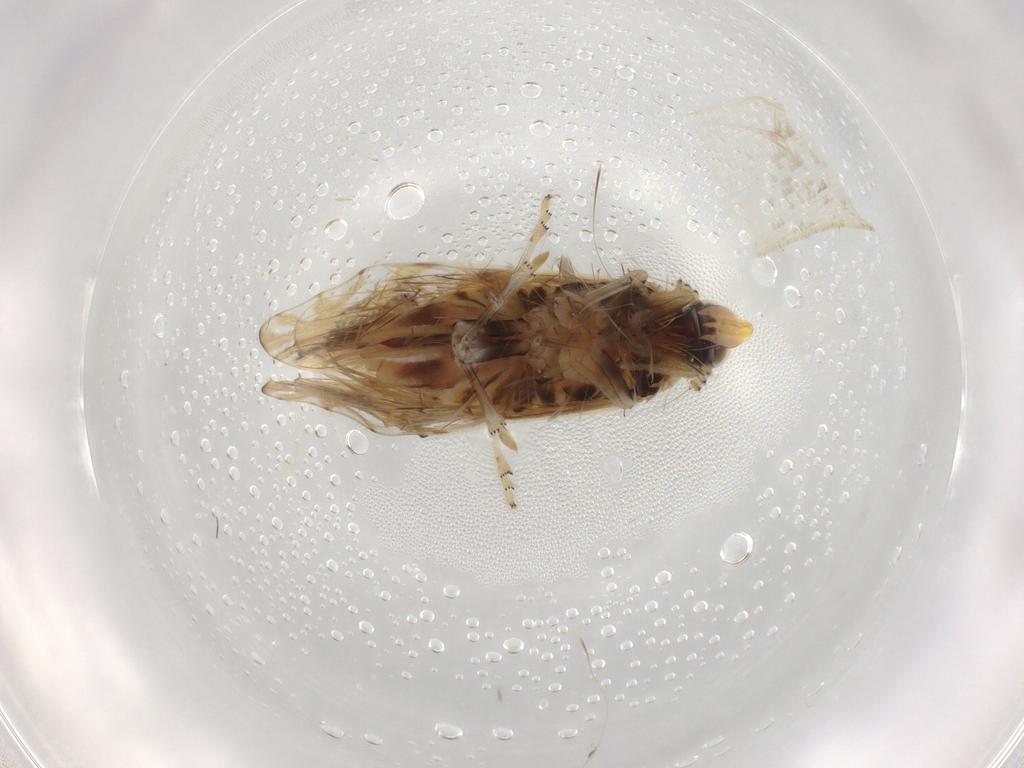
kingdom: Animalia
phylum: Arthropoda
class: Insecta
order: Hemiptera
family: Delphacidae
